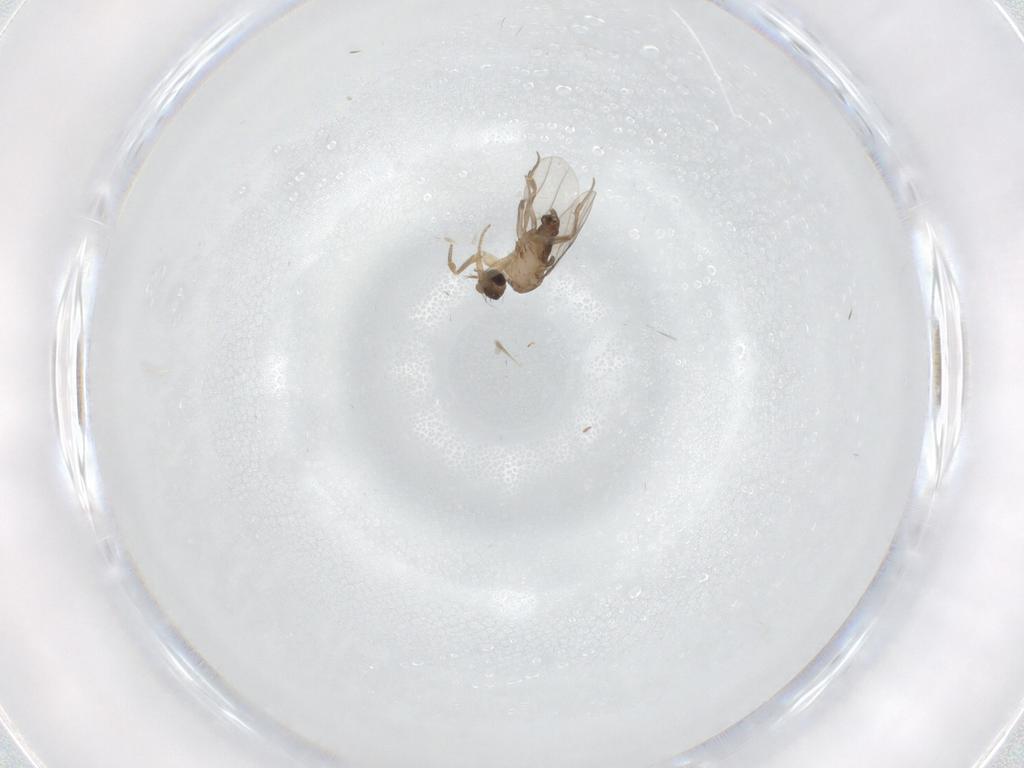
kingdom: Animalia
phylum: Arthropoda
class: Insecta
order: Diptera
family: Phoridae
